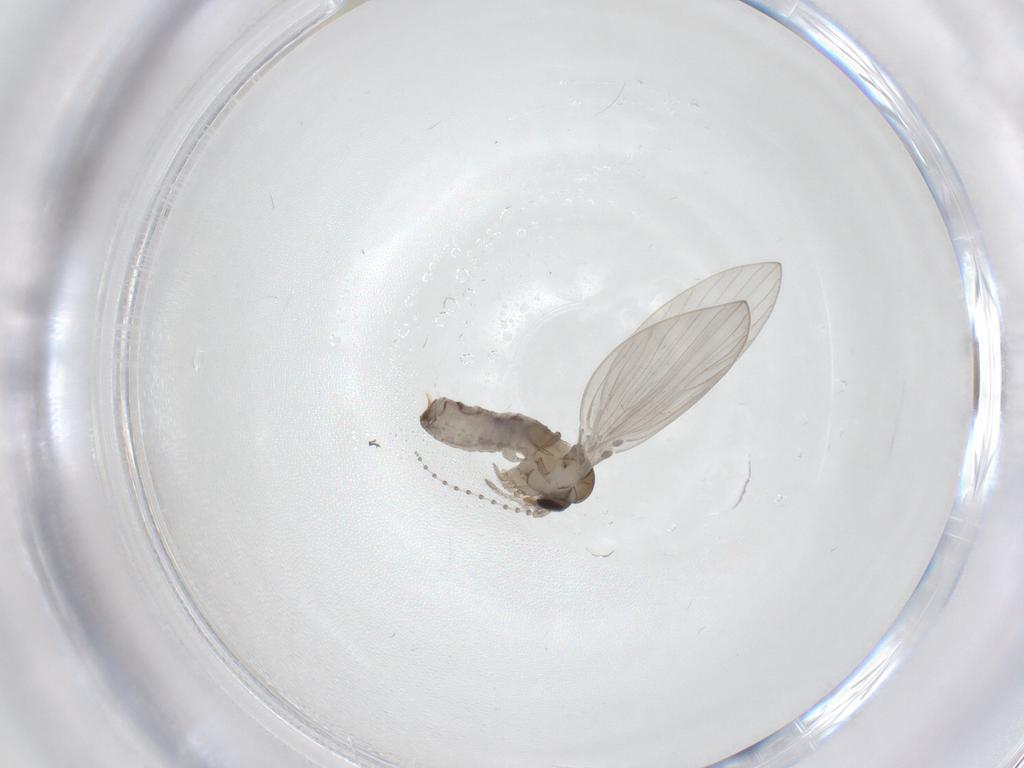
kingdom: Animalia
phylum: Arthropoda
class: Insecta
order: Diptera
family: Psychodidae
